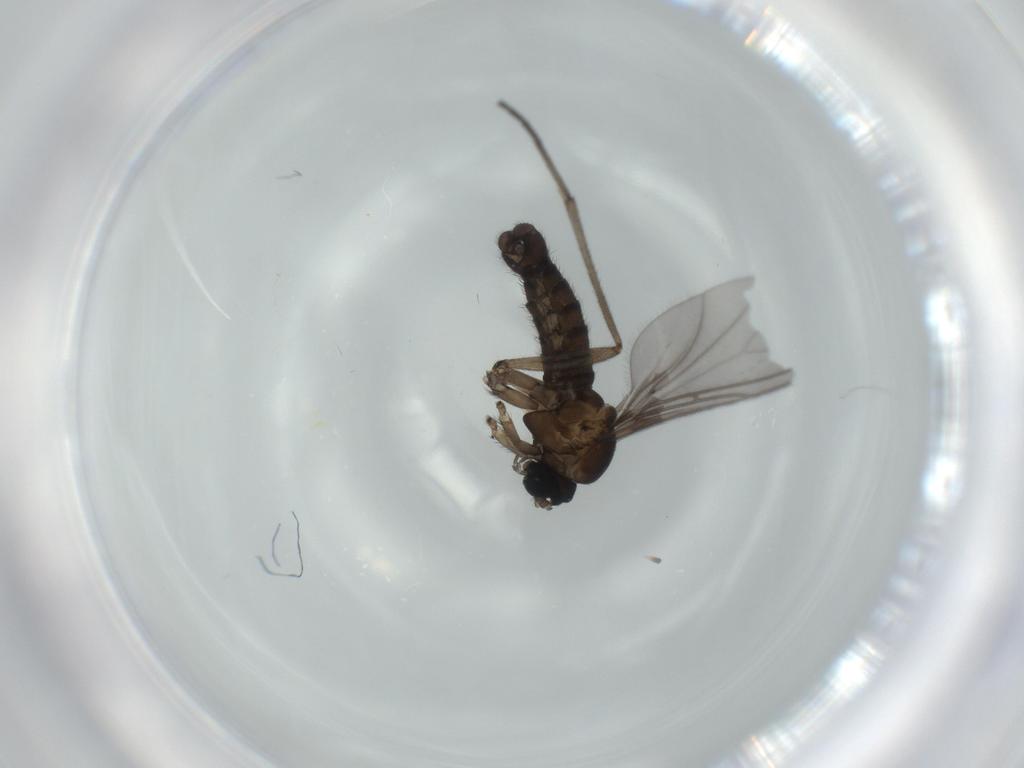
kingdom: Animalia
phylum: Arthropoda
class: Insecta
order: Diptera
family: Sciaridae
